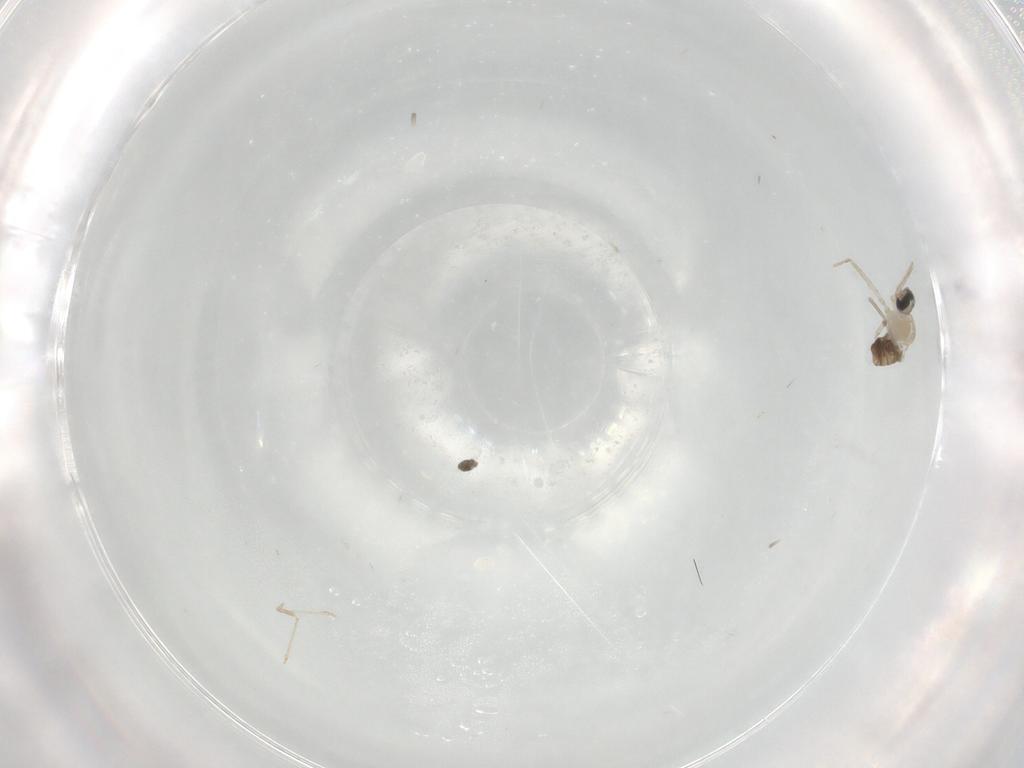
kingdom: Animalia
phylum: Arthropoda
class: Insecta
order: Diptera
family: Cecidomyiidae
